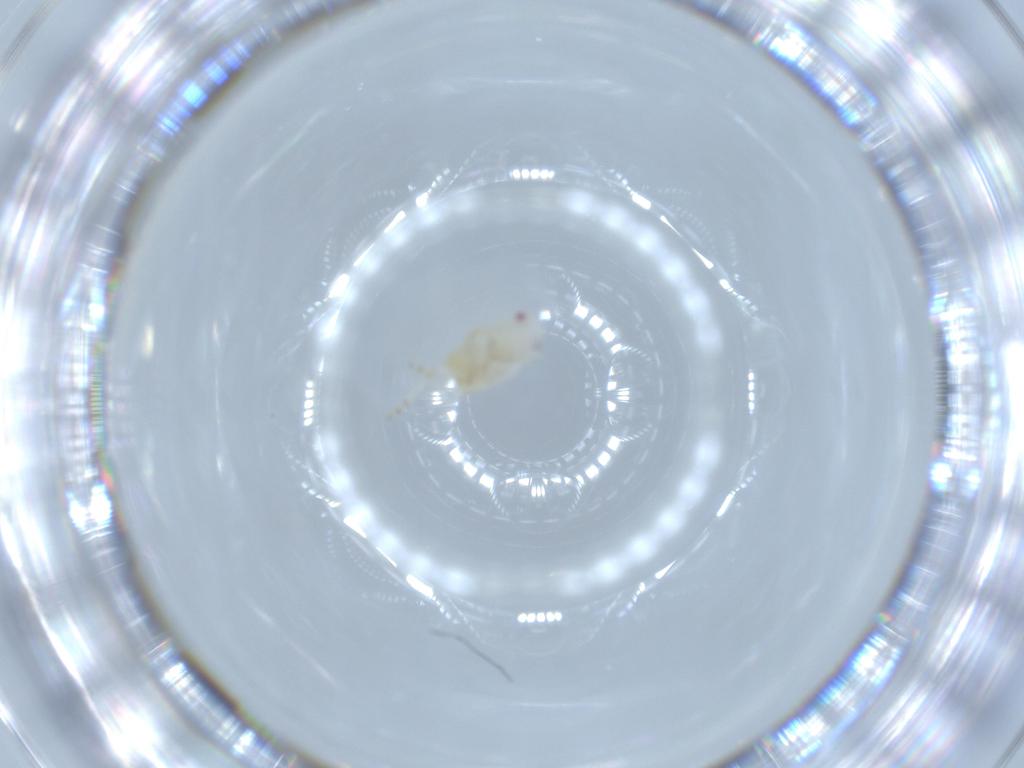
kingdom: Animalia
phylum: Arthropoda
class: Insecta
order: Hemiptera
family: Flatidae
